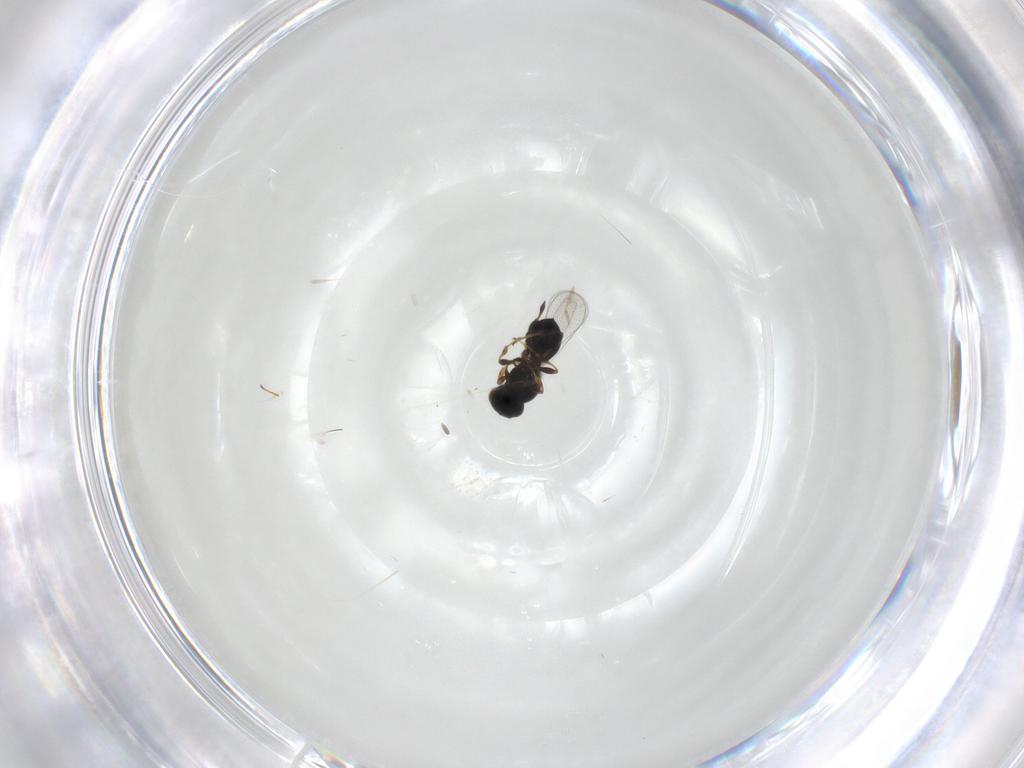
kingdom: Animalia
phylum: Arthropoda
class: Insecta
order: Hymenoptera
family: Platygastridae
